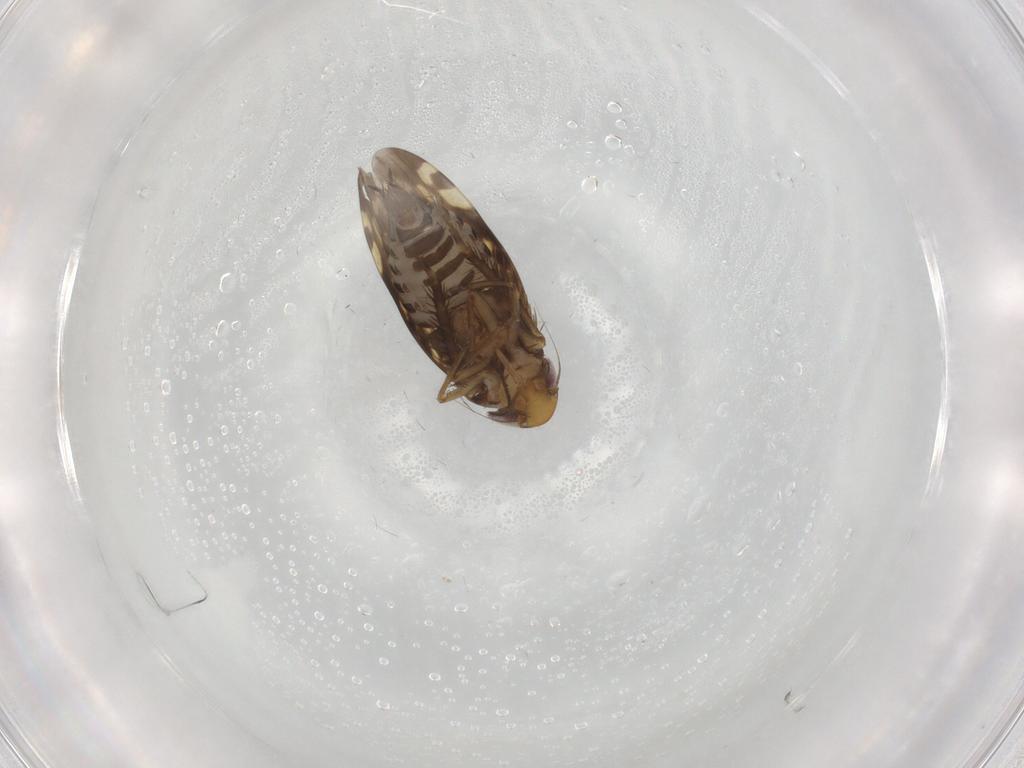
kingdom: Animalia
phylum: Arthropoda
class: Insecta
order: Hemiptera
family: Cicadellidae
